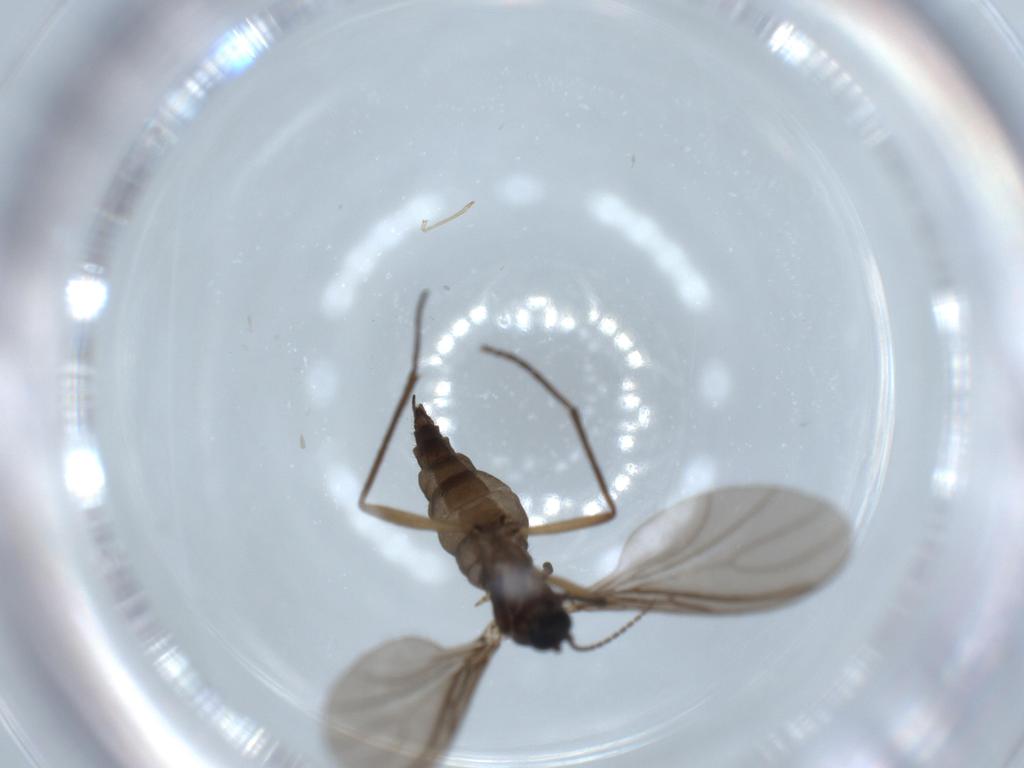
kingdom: Animalia
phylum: Arthropoda
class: Insecta
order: Diptera
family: Sciaridae
